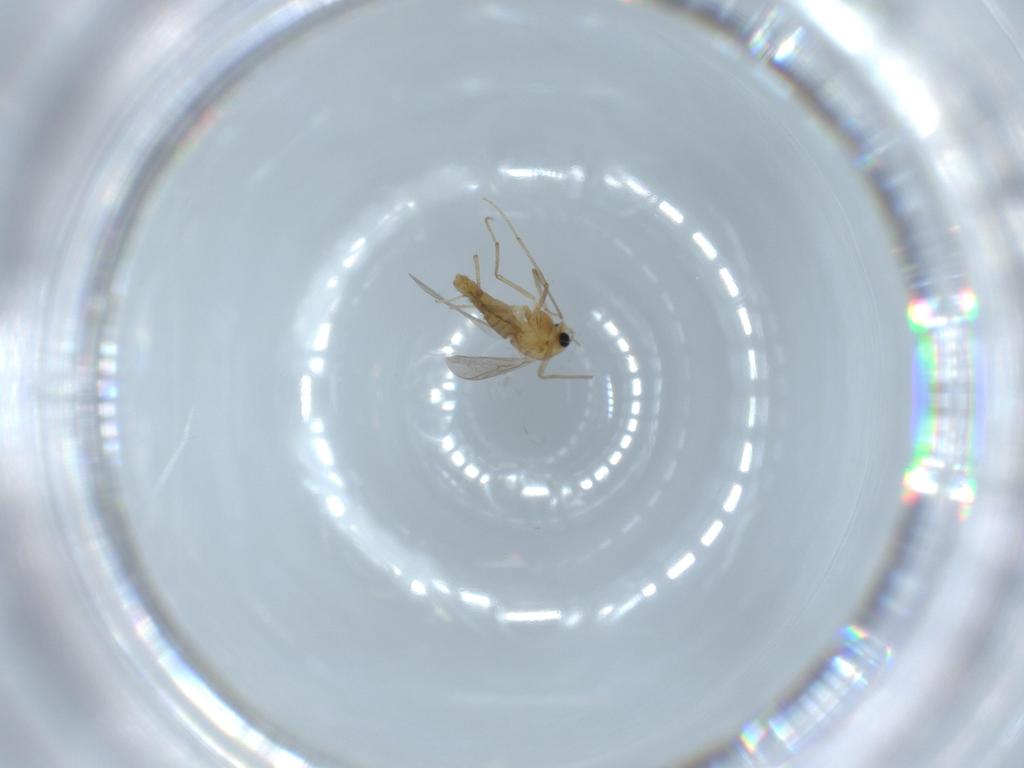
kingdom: Animalia
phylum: Arthropoda
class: Insecta
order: Diptera
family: Chironomidae
